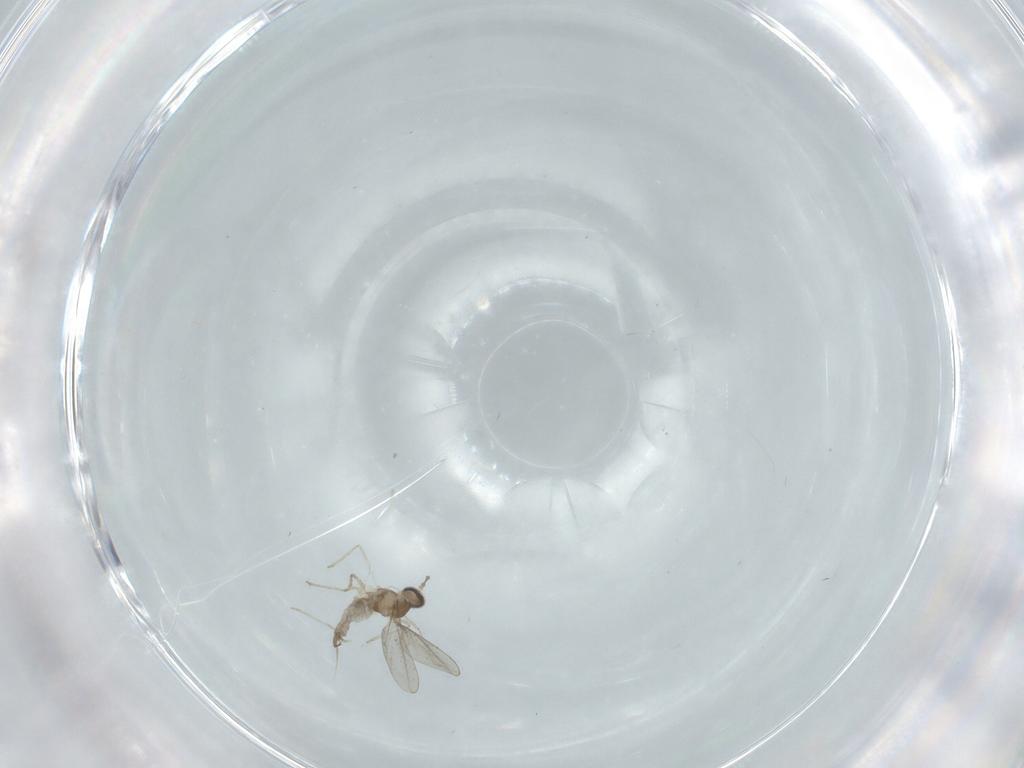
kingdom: Animalia
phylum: Arthropoda
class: Insecta
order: Diptera
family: Cecidomyiidae
